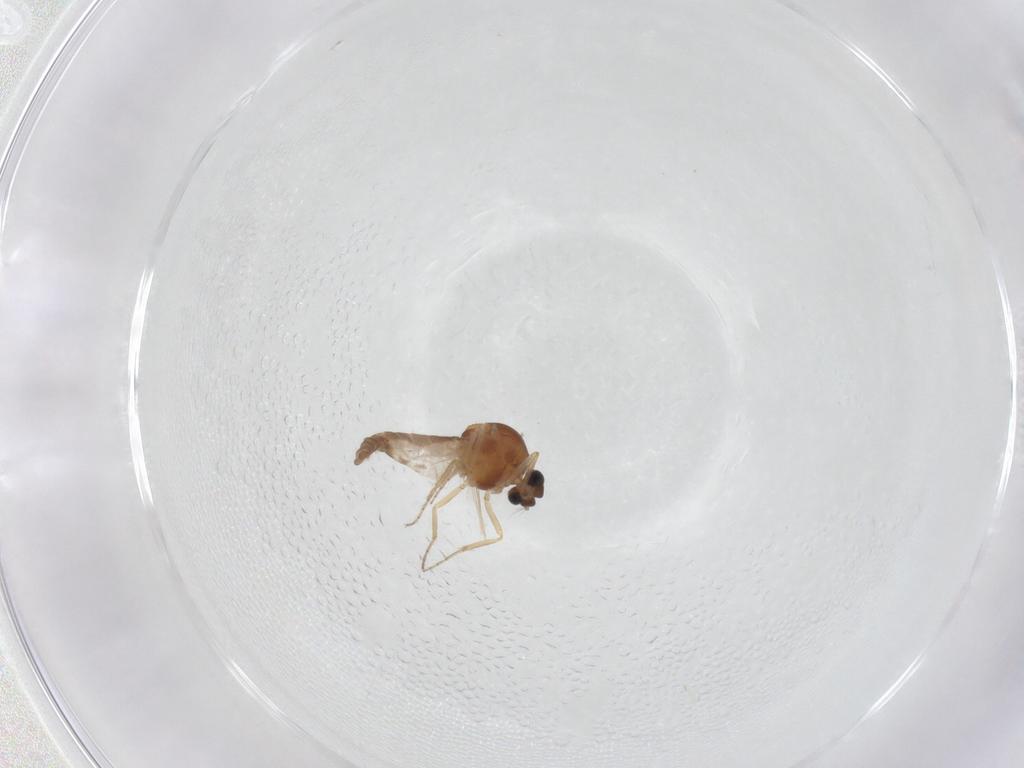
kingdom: Animalia
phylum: Arthropoda
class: Insecta
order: Diptera
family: Ceratopogonidae
